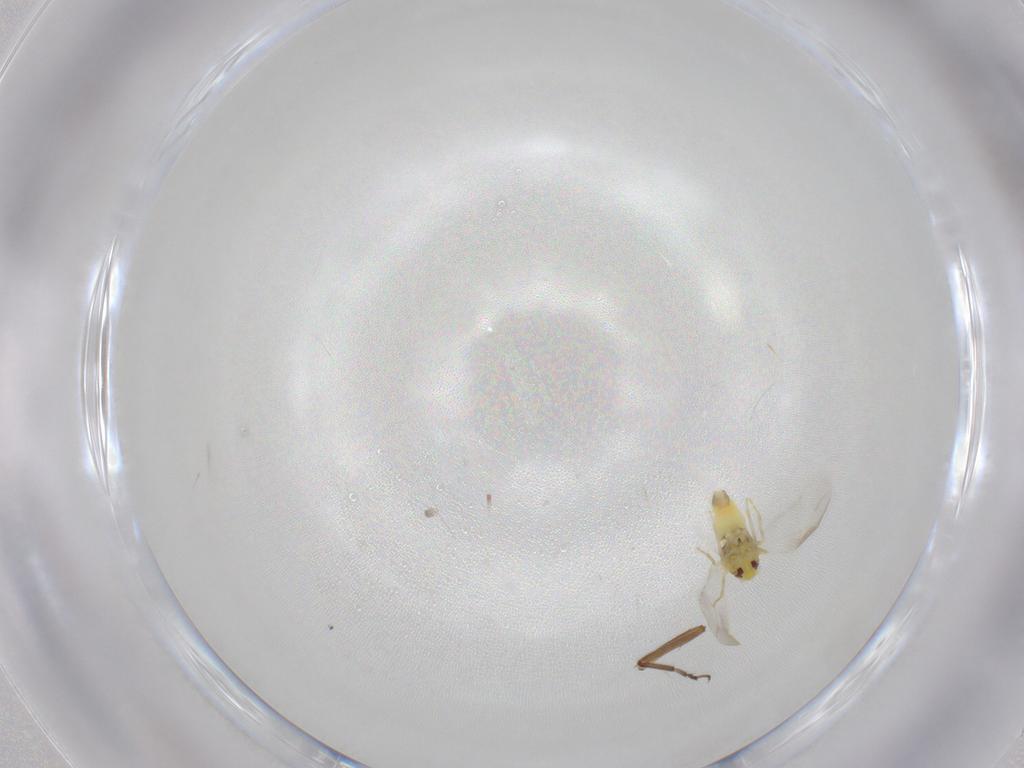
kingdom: Animalia
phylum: Arthropoda
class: Insecta
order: Hemiptera
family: Aleyrodidae
